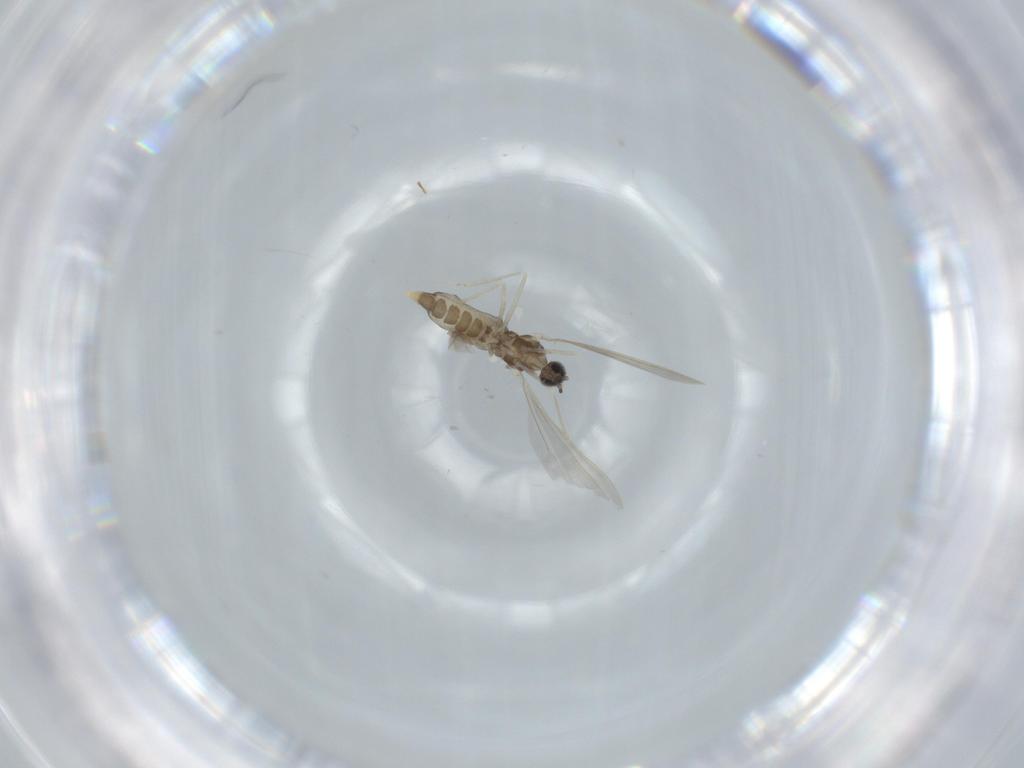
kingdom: Animalia
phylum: Arthropoda
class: Insecta
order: Diptera
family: Cecidomyiidae
